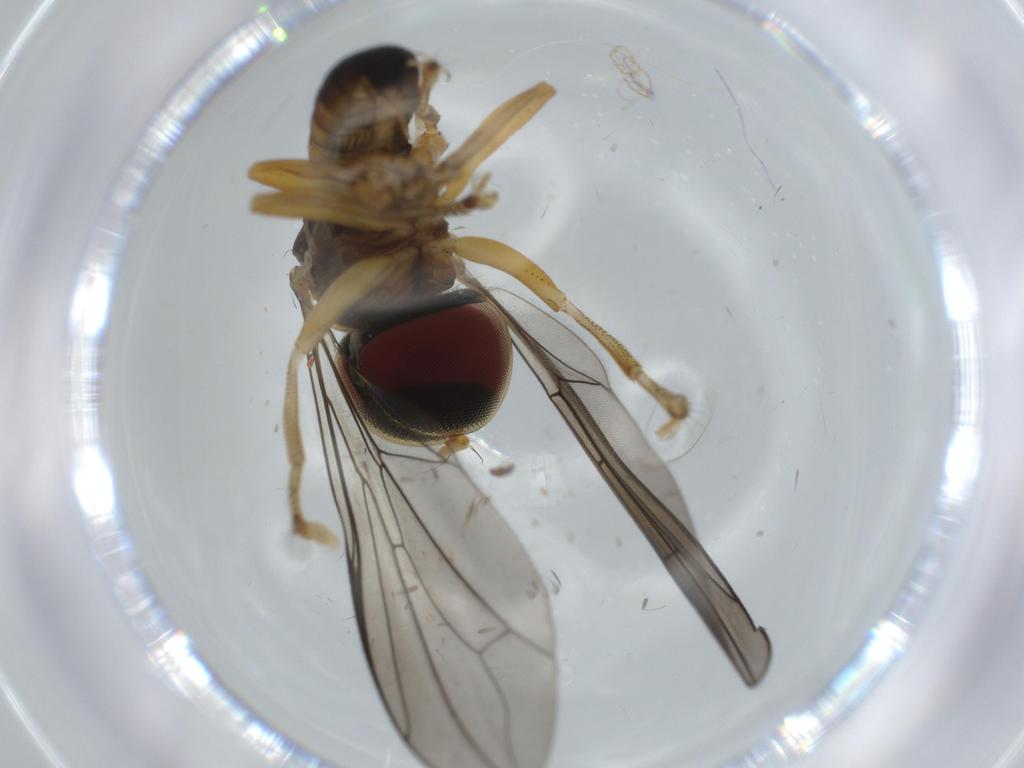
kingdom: Animalia
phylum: Arthropoda
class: Insecta
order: Diptera
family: Pipunculidae
